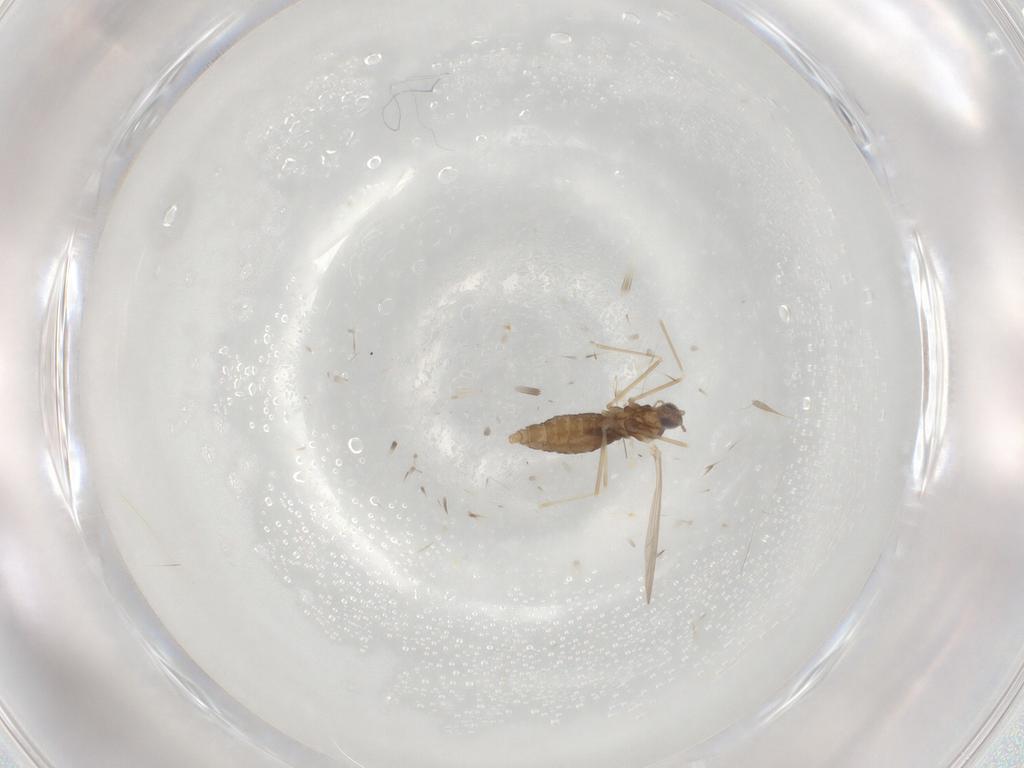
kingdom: Animalia
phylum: Arthropoda
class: Insecta
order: Diptera
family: Cecidomyiidae
